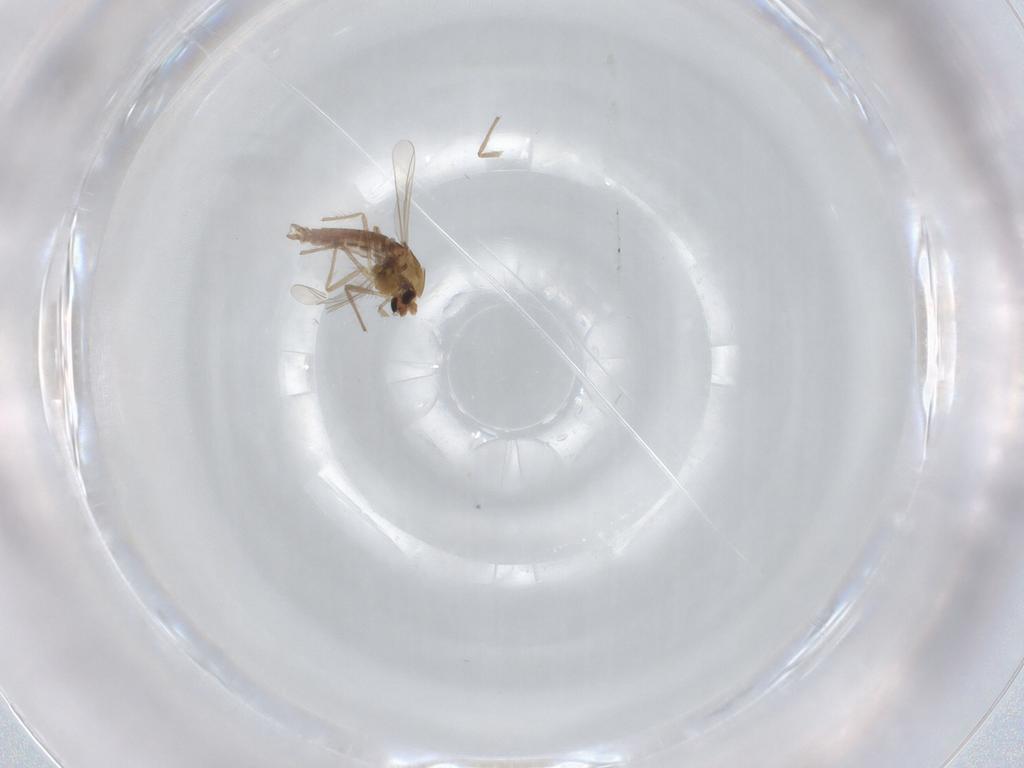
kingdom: Animalia
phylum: Arthropoda
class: Insecta
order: Diptera
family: Chironomidae
